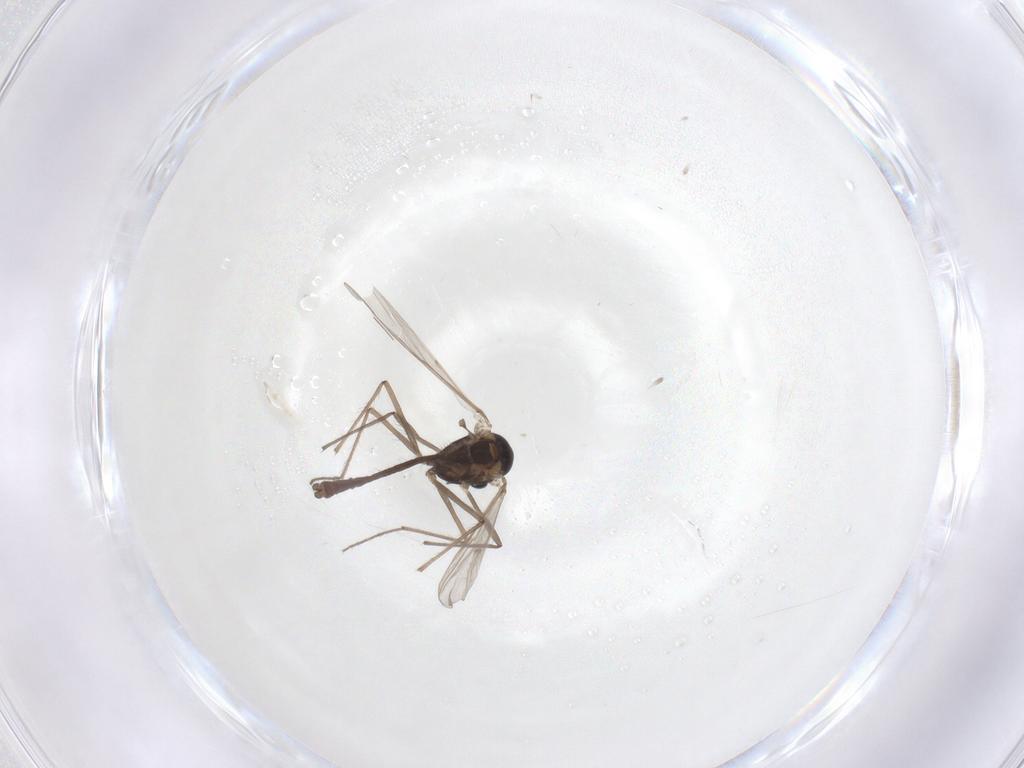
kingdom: Animalia
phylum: Arthropoda
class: Insecta
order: Diptera
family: Chironomidae
